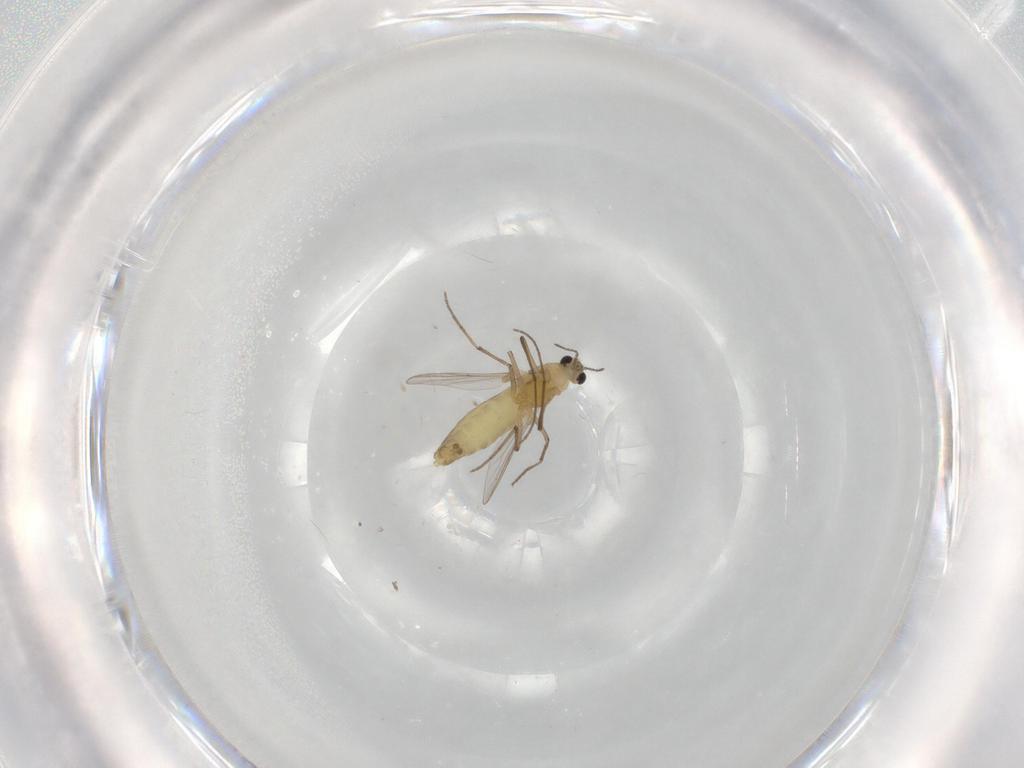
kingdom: Animalia
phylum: Arthropoda
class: Insecta
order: Diptera
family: Chironomidae
